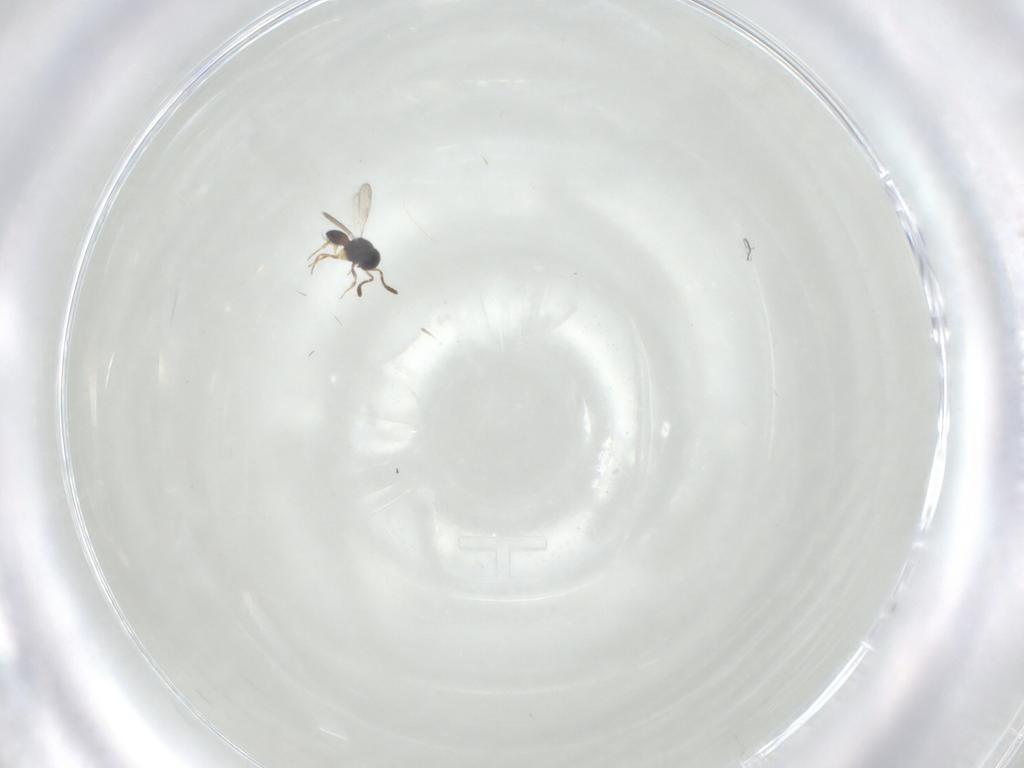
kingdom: Animalia
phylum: Arthropoda
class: Insecta
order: Hymenoptera
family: Scelionidae
